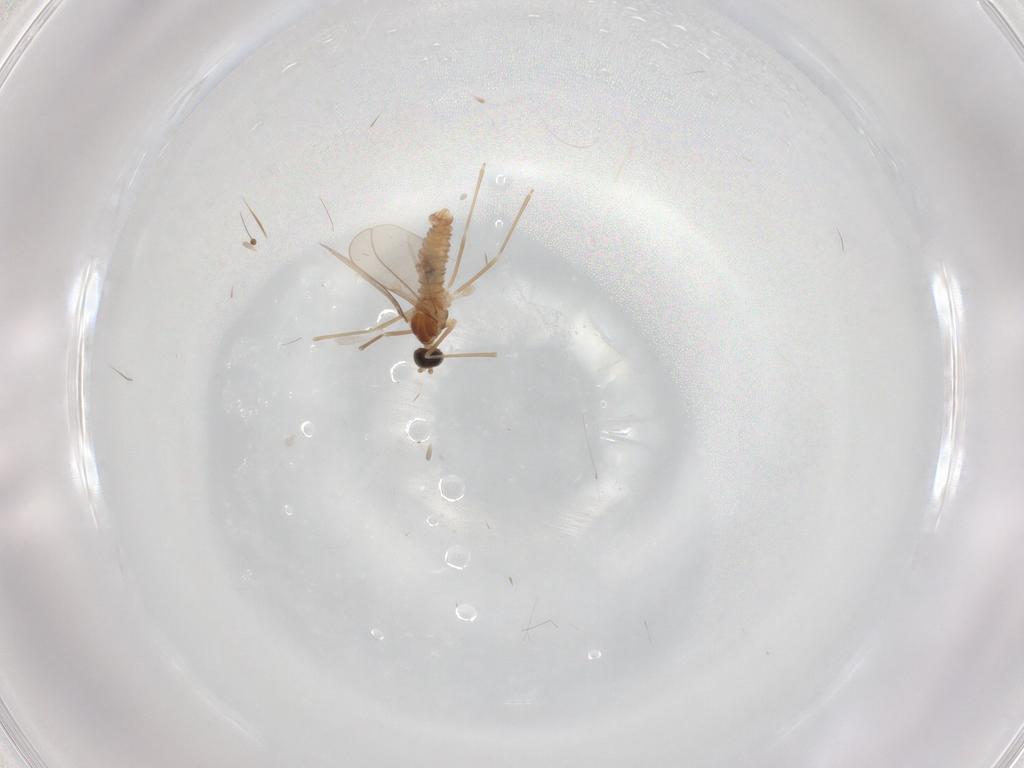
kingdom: Animalia
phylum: Arthropoda
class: Insecta
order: Diptera
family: Cecidomyiidae
